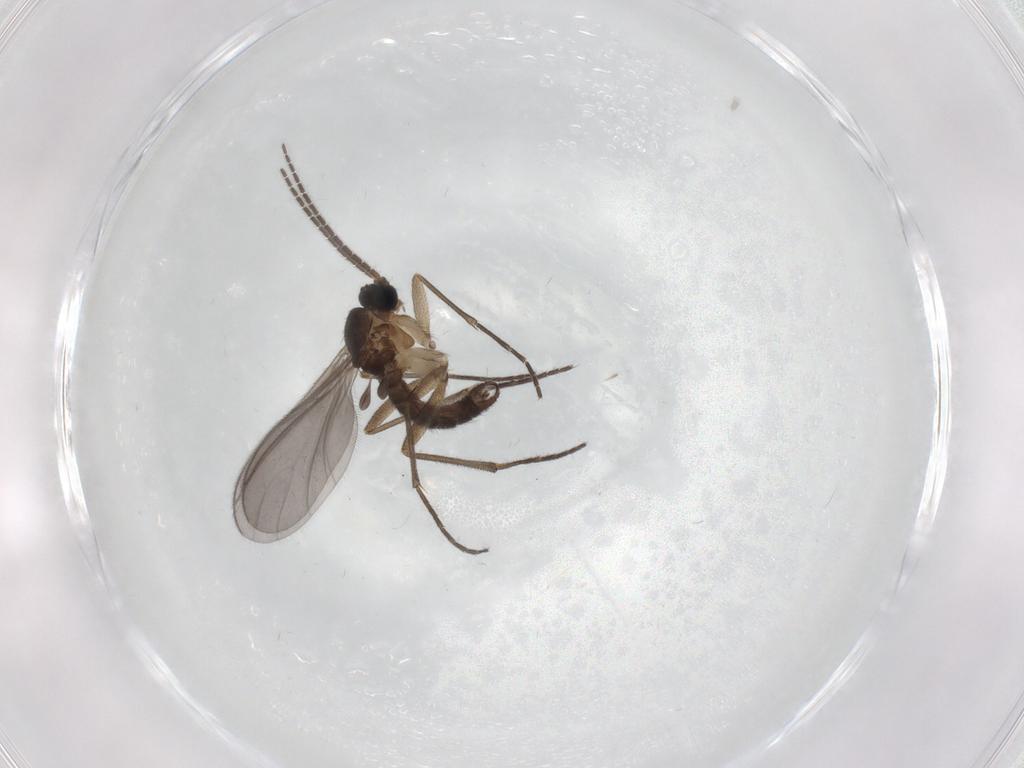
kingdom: Animalia
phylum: Arthropoda
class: Insecta
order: Diptera
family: Sciaridae
